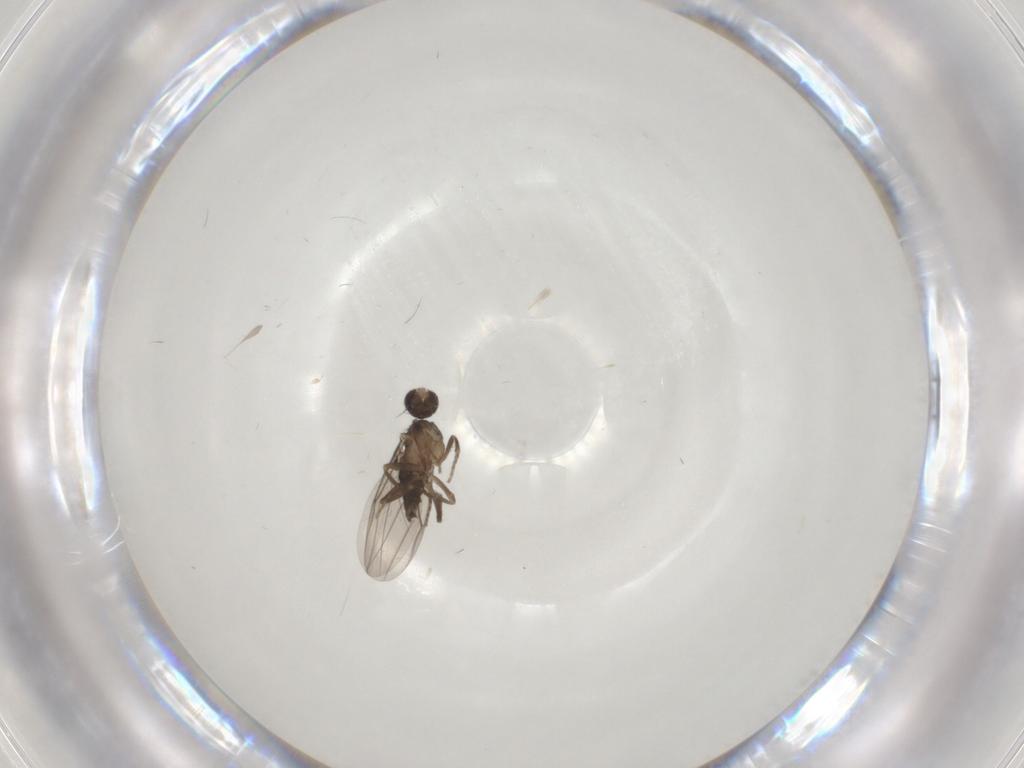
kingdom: Animalia
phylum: Arthropoda
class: Insecta
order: Diptera
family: Phoridae
